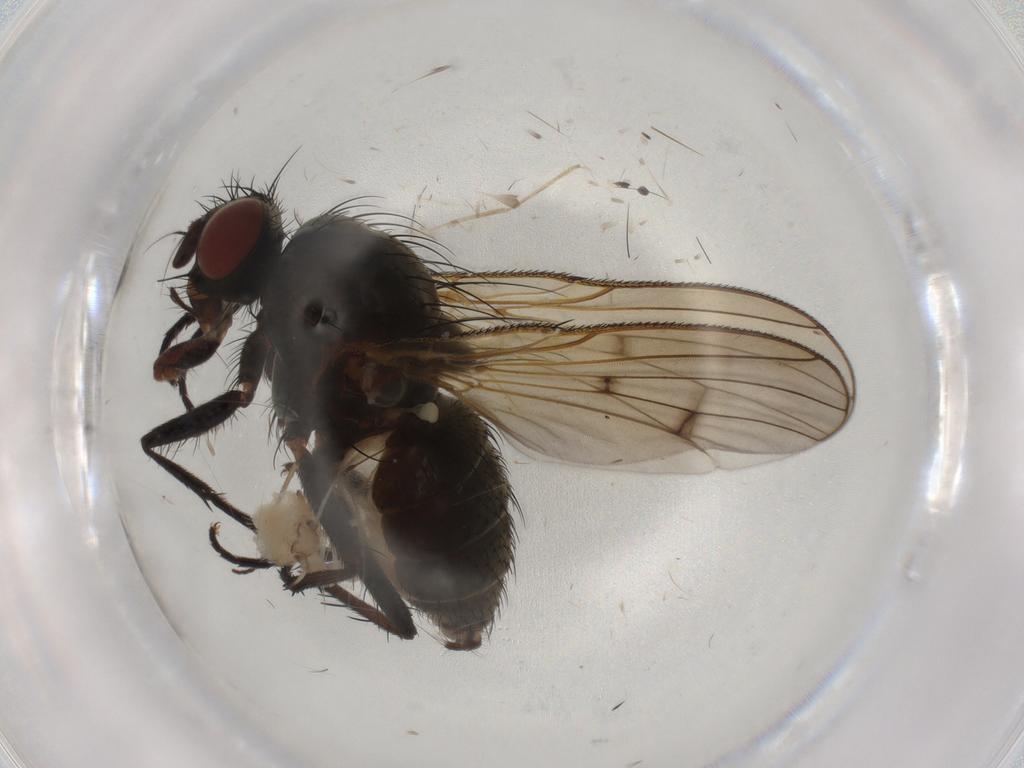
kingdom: Animalia
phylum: Arthropoda
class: Insecta
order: Diptera
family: Anthomyiidae
